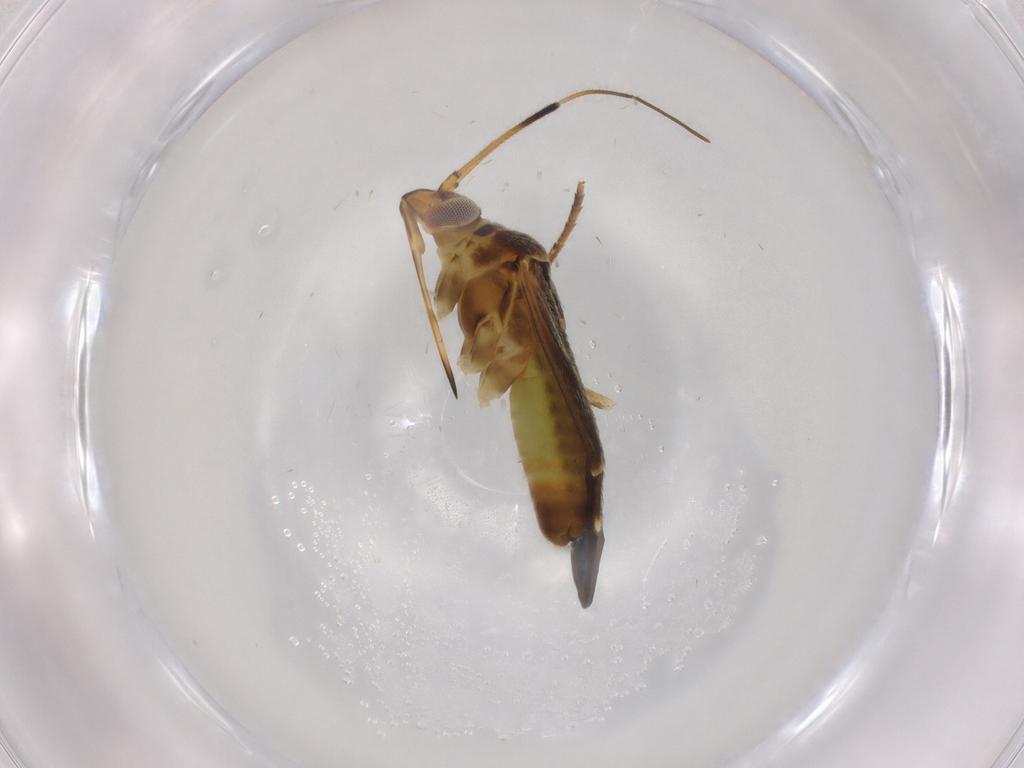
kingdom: Animalia
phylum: Arthropoda
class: Insecta
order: Hemiptera
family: Miridae
